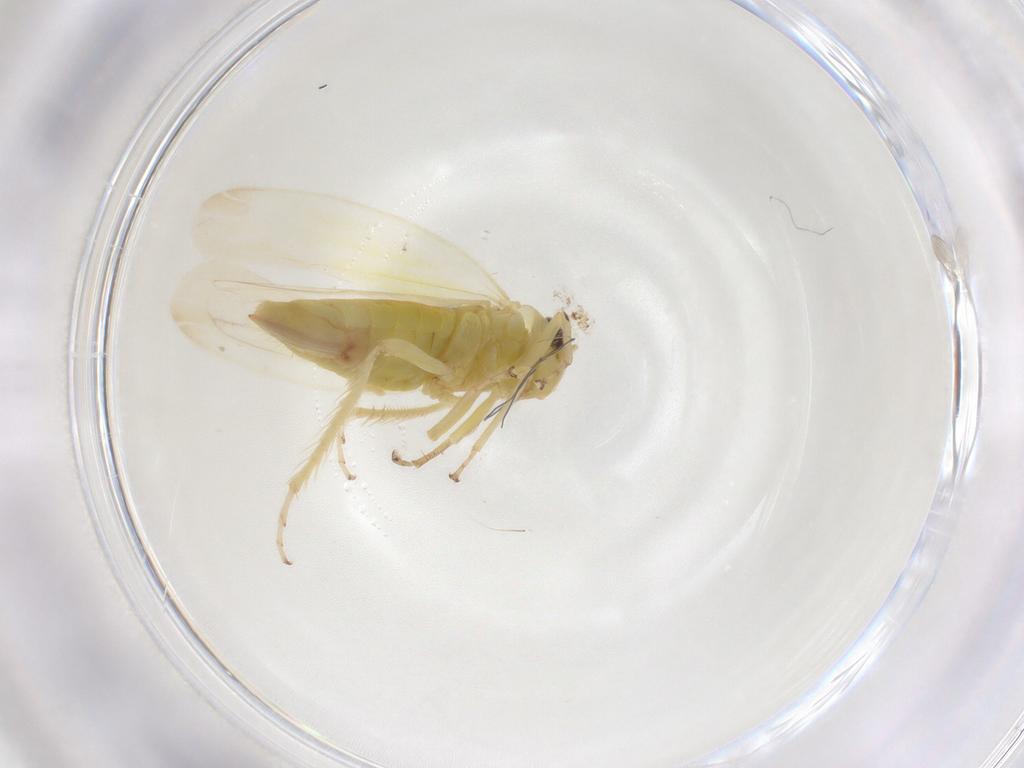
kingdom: Animalia
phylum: Arthropoda
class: Insecta
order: Hemiptera
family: Cicadellidae
